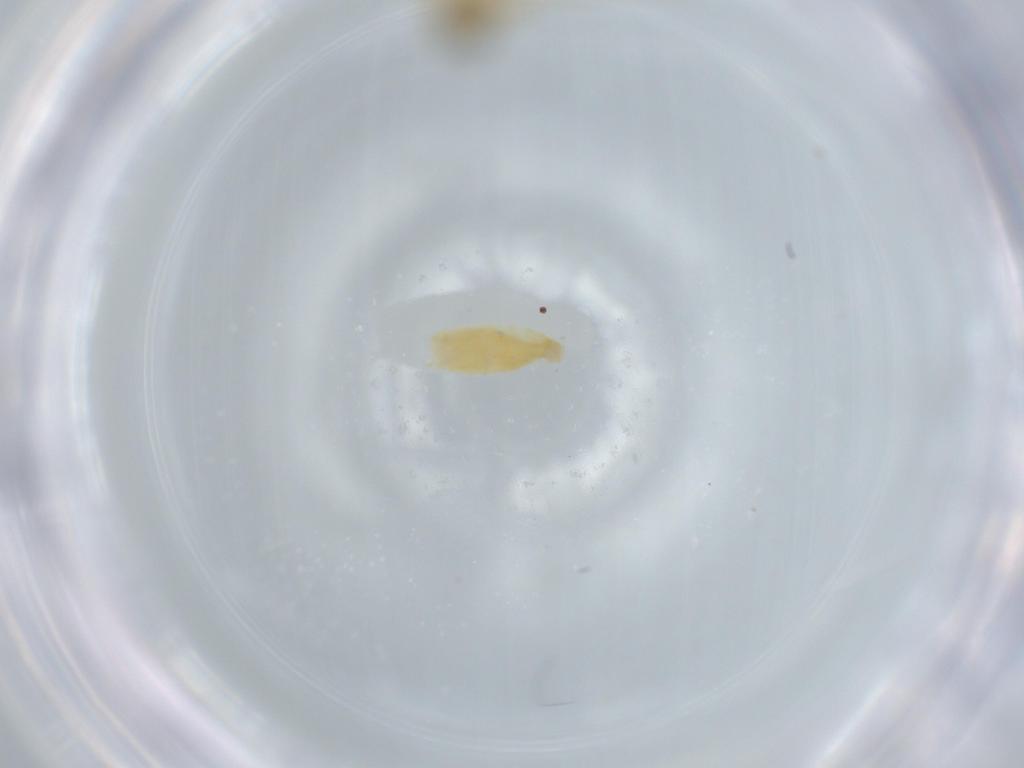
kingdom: Animalia
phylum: Arthropoda
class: Insecta
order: Diptera
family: Chironomidae
